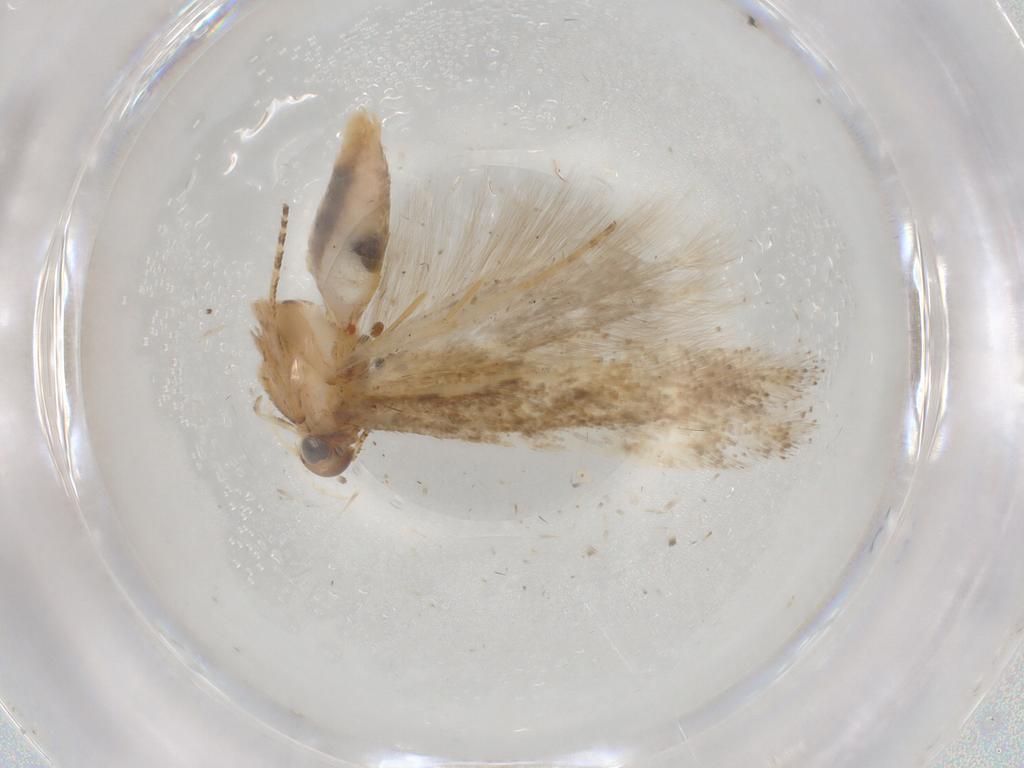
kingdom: Animalia
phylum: Arthropoda
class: Insecta
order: Lepidoptera
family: Gelechiidae
